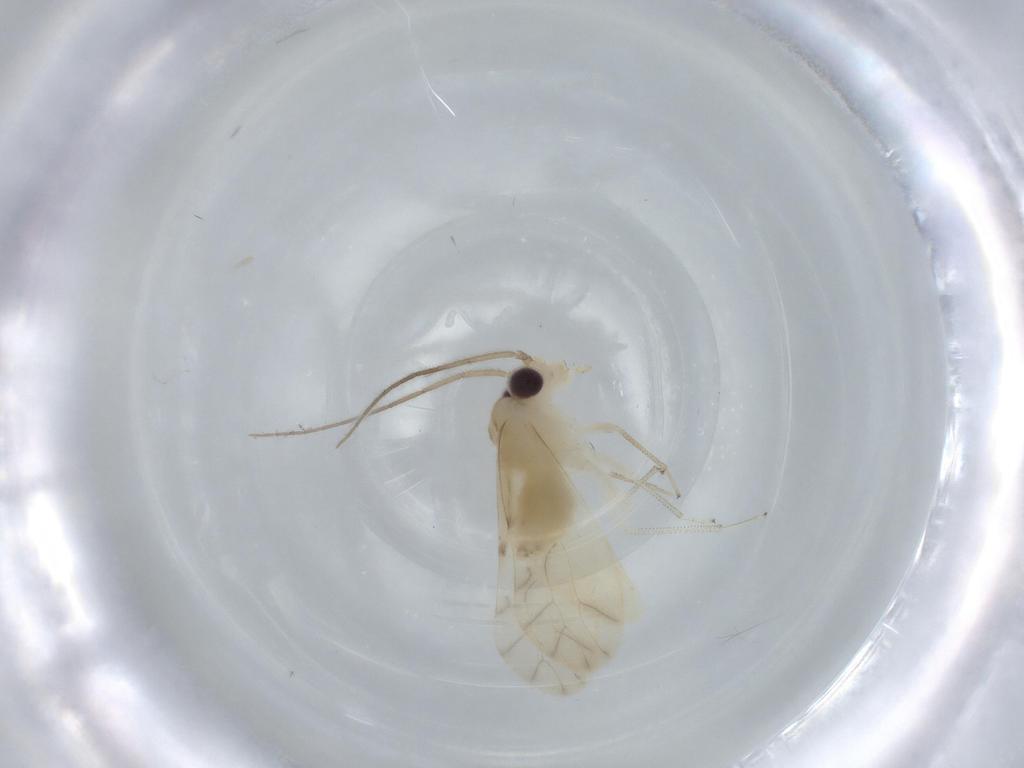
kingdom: Animalia
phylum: Arthropoda
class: Insecta
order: Psocodea
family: Caeciliusidae
